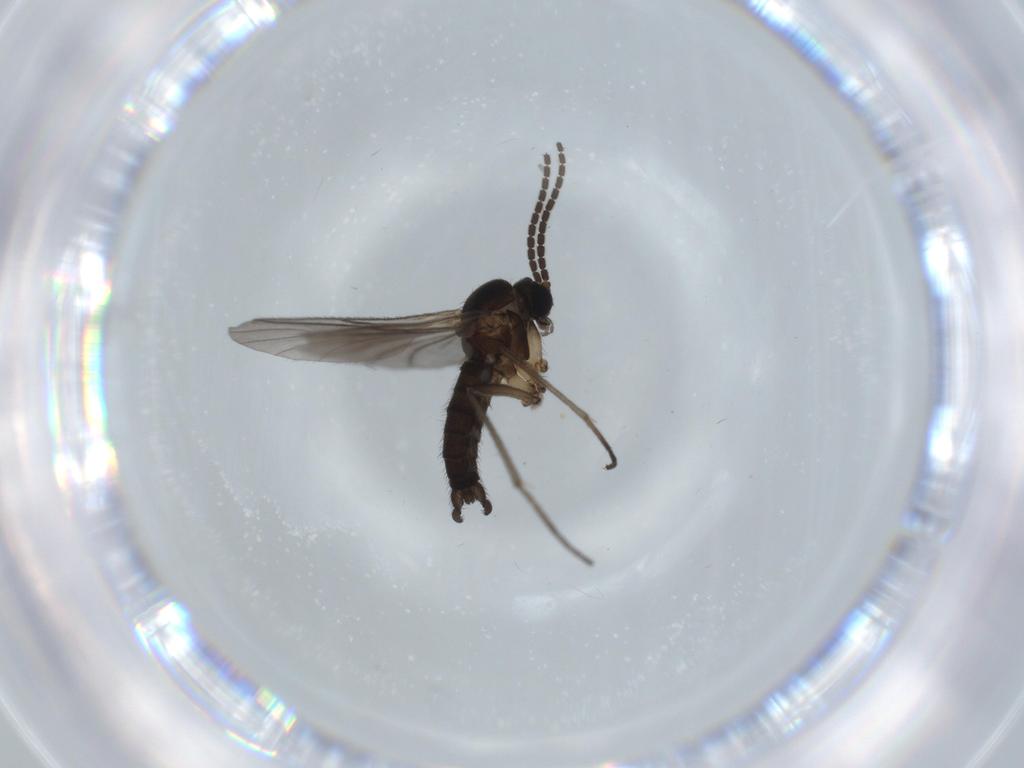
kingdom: Animalia
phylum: Arthropoda
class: Insecta
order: Diptera
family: Sciaridae
